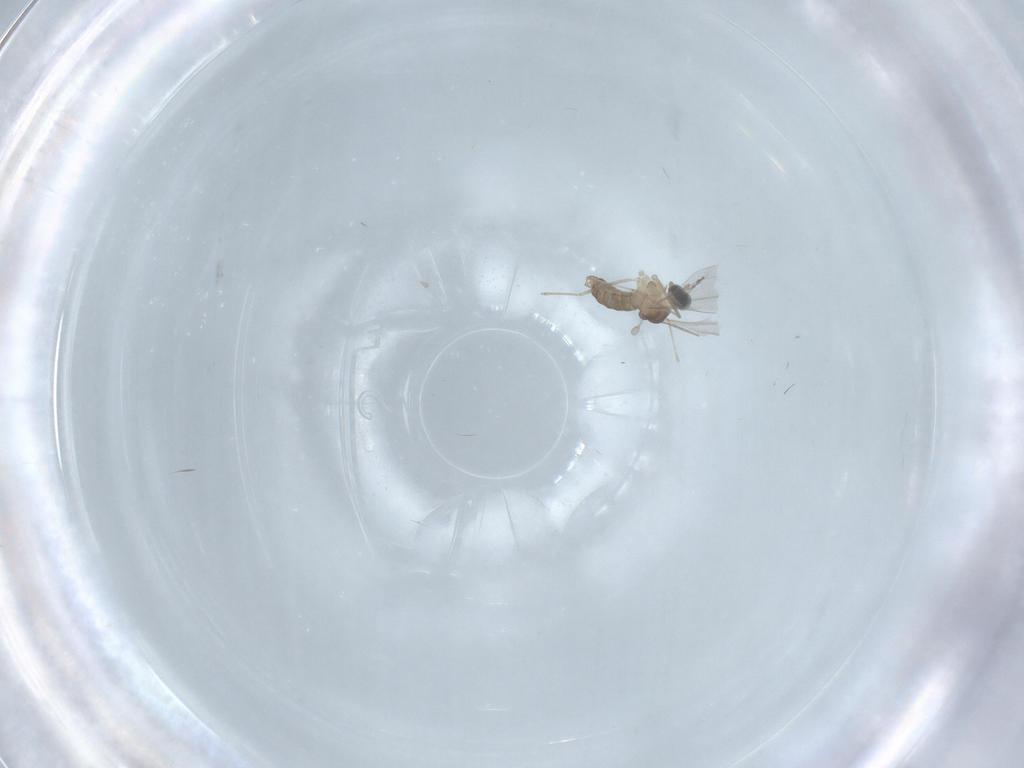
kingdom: Animalia
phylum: Arthropoda
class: Insecta
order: Diptera
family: Cecidomyiidae
